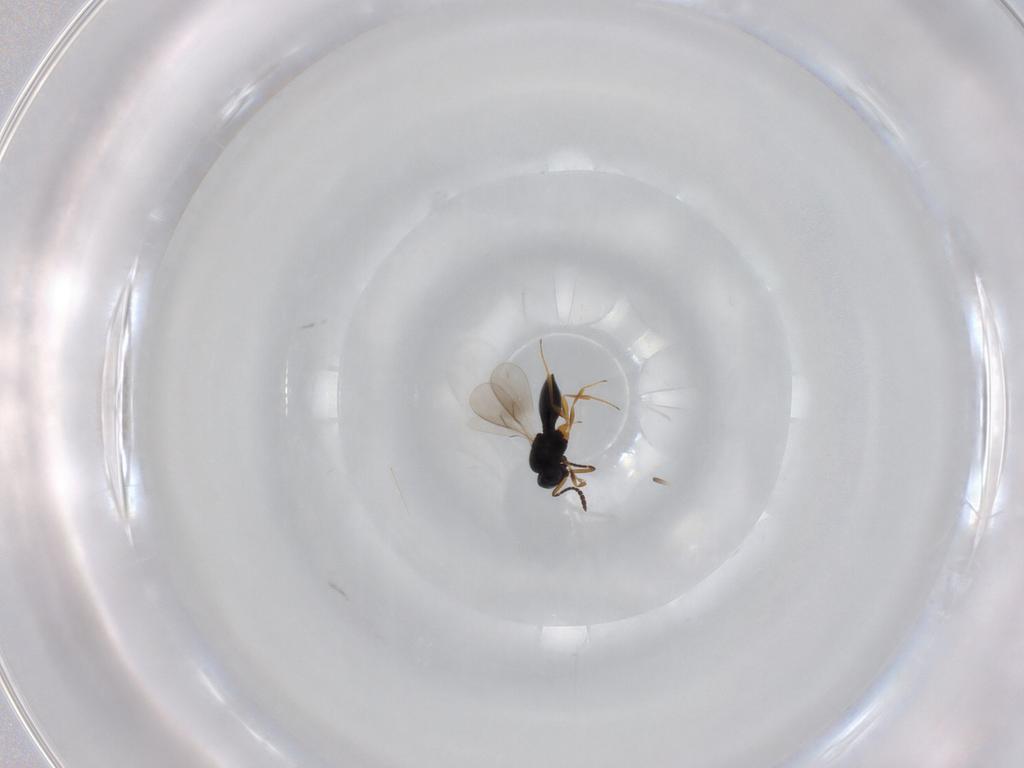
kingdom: Animalia
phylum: Arthropoda
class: Insecta
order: Hymenoptera
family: Scelionidae
